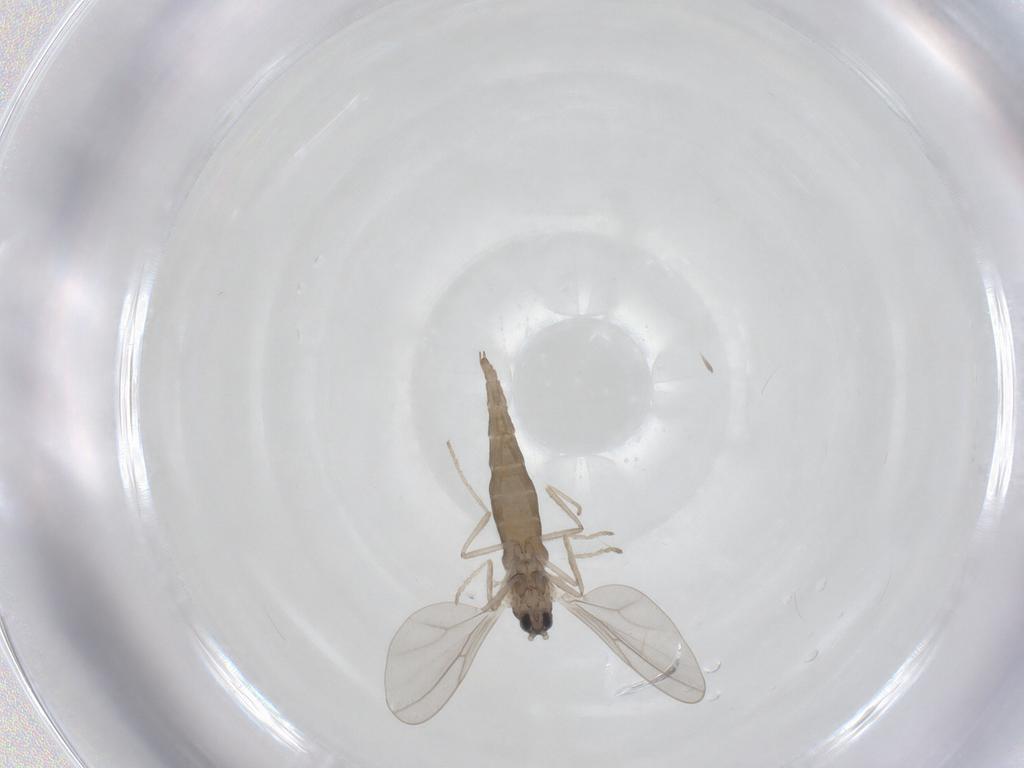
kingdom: Animalia
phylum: Arthropoda
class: Insecta
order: Diptera
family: Cecidomyiidae
